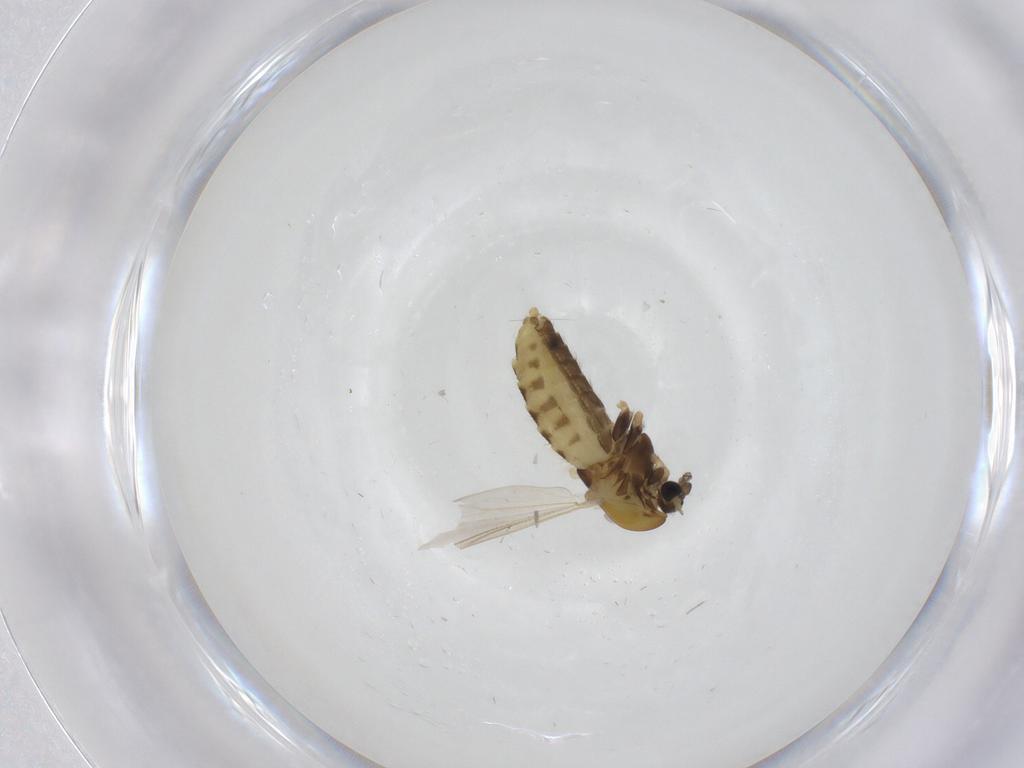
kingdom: Animalia
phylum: Arthropoda
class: Insecta
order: Diptera
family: Chironomidae
